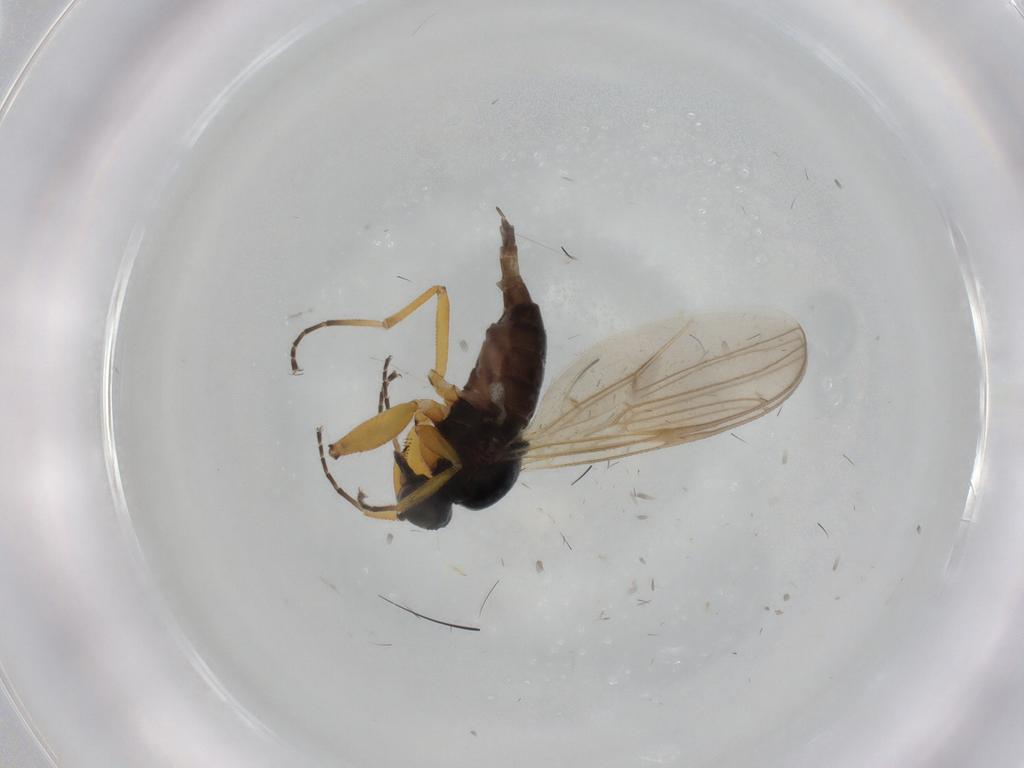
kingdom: Animalia
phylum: Arthropoda
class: Insecta
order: Diptera
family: Hybotidae
